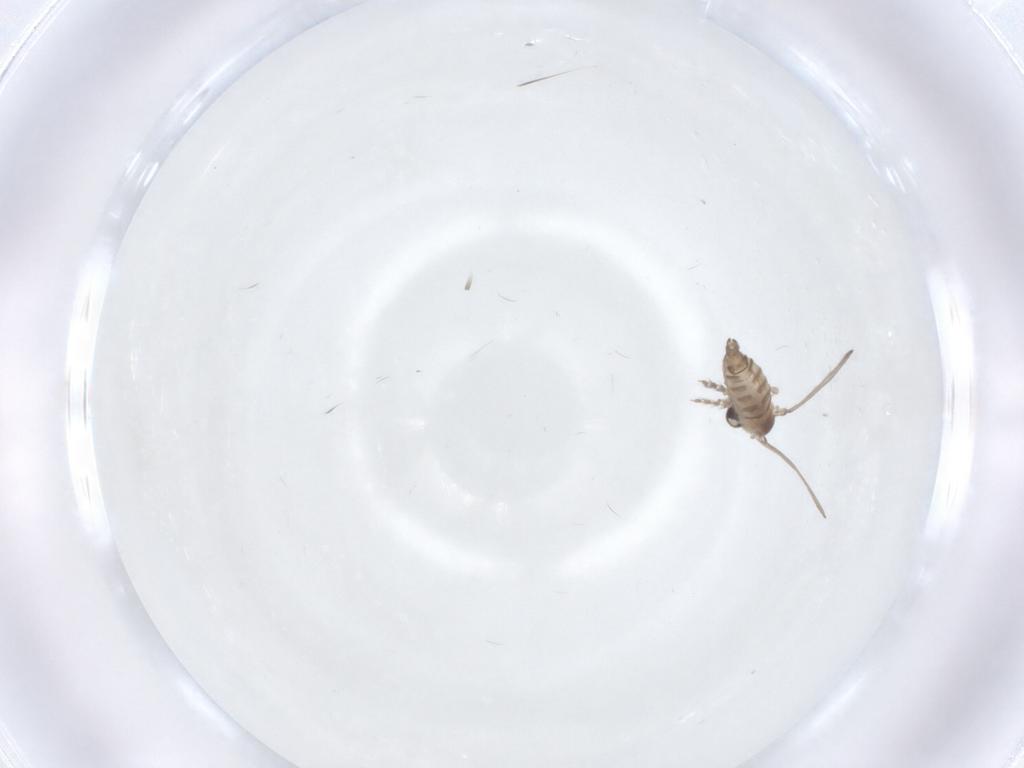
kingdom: Animalia
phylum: Arthropoda
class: Insecta
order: Diptera
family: Psychodidae
